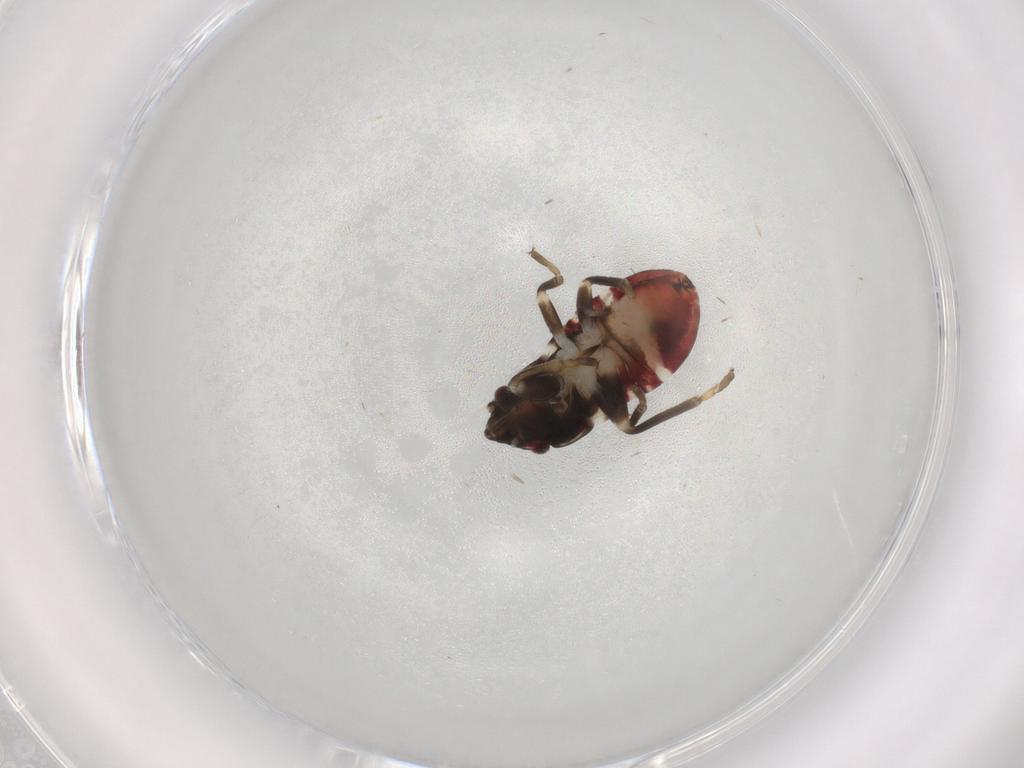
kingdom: Animalia
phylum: Arthropoda
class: Insecta
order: Hemiptera
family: Rhyparochromidae
